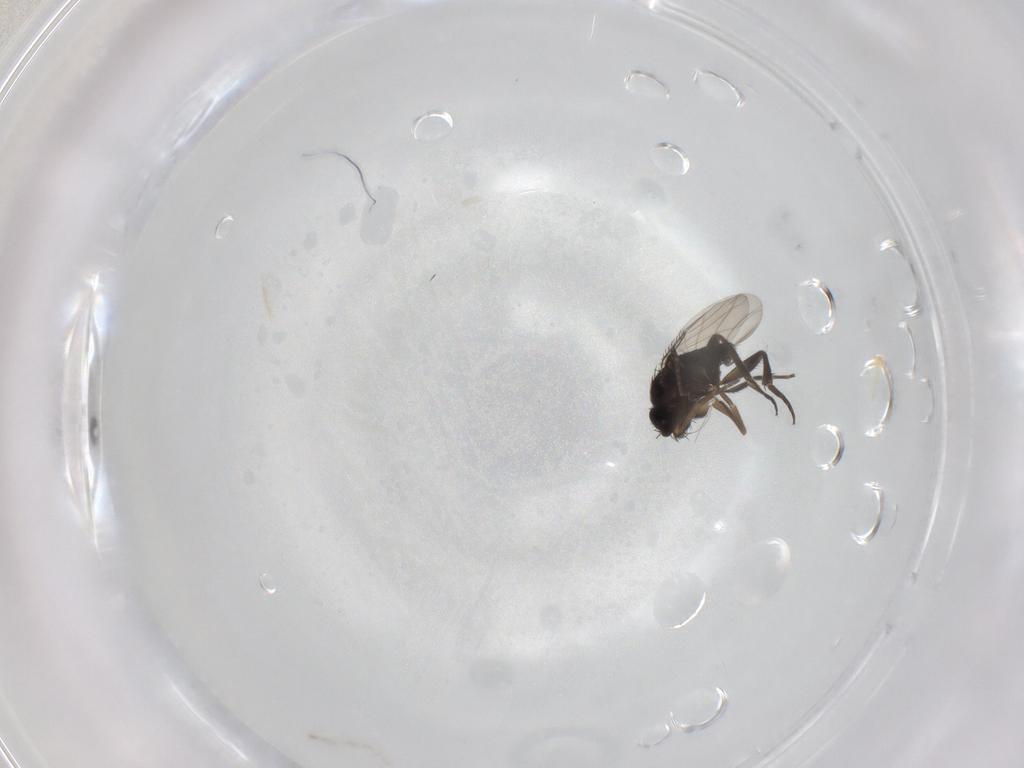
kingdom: Animalia
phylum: Arthropoda
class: Insecta
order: Diptera
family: Phoridae
